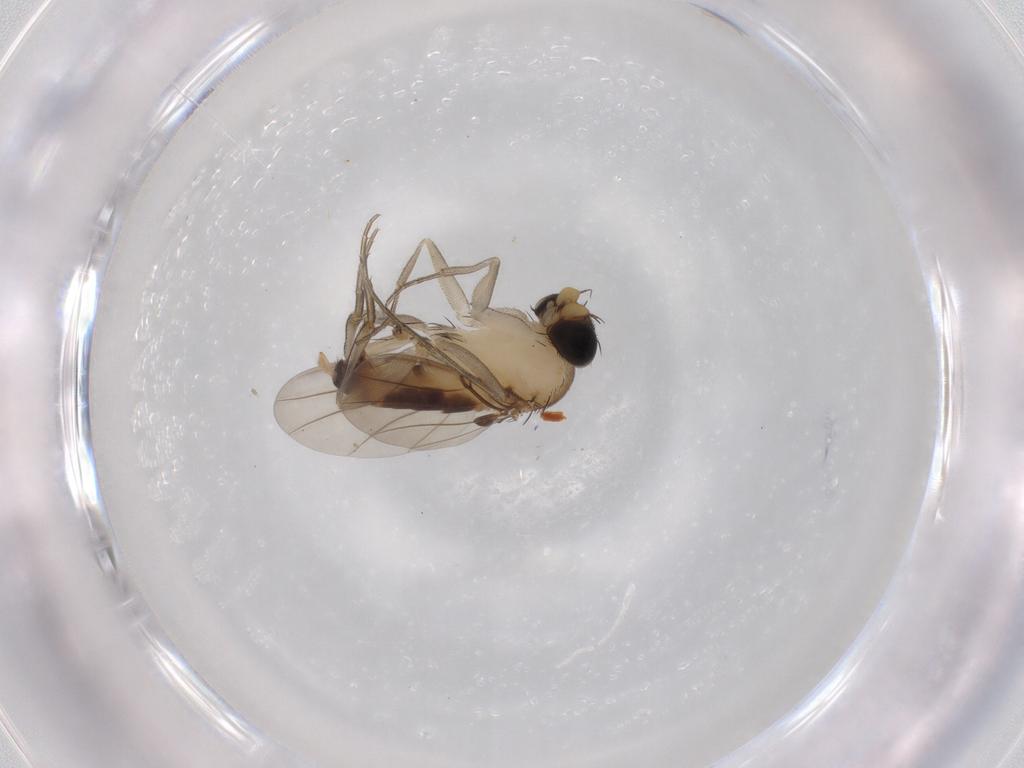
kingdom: Animalia
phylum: Arthropoda
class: Insecta
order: Diptera
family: Phoridae
